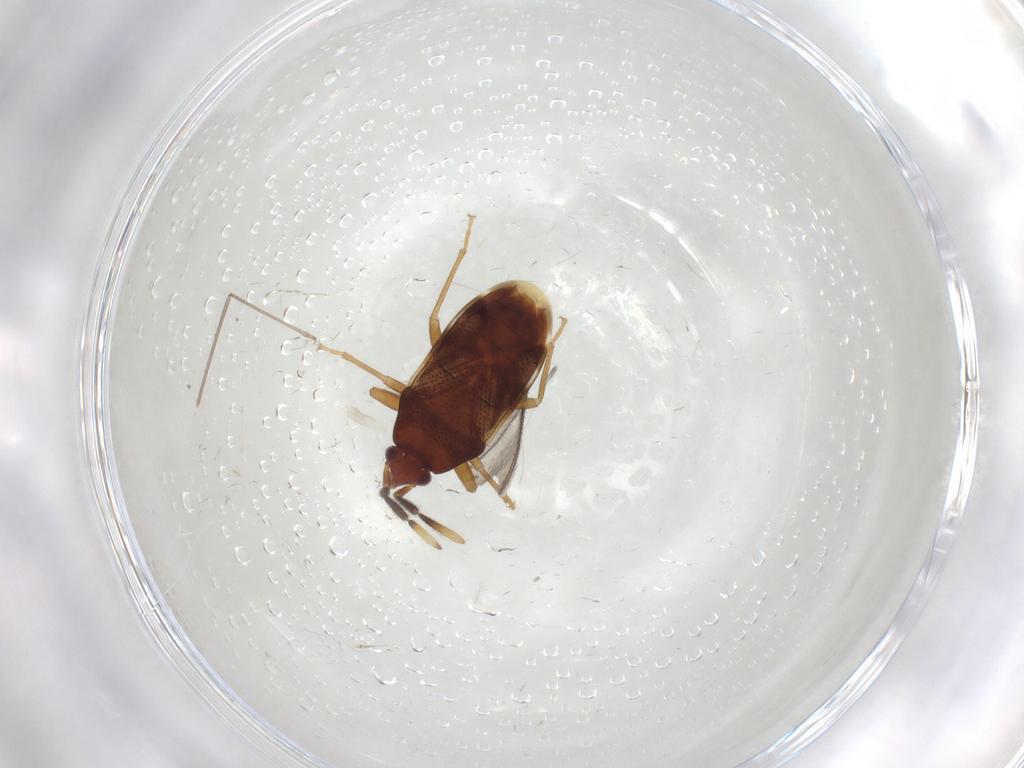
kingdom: Animalia
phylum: Arthropoda
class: Insecta
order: Hemiptera
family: Rhyparochromidae
